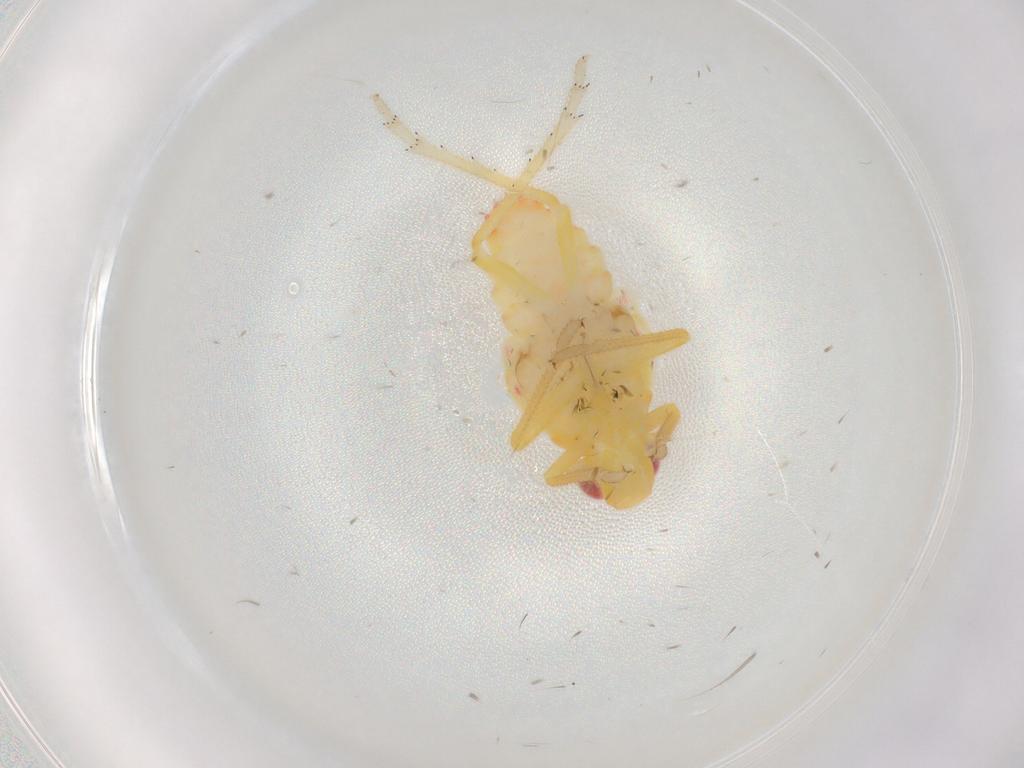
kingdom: Animalia
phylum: Arthropoda
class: Insecta
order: Hemiptera
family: Tropiduchidae
